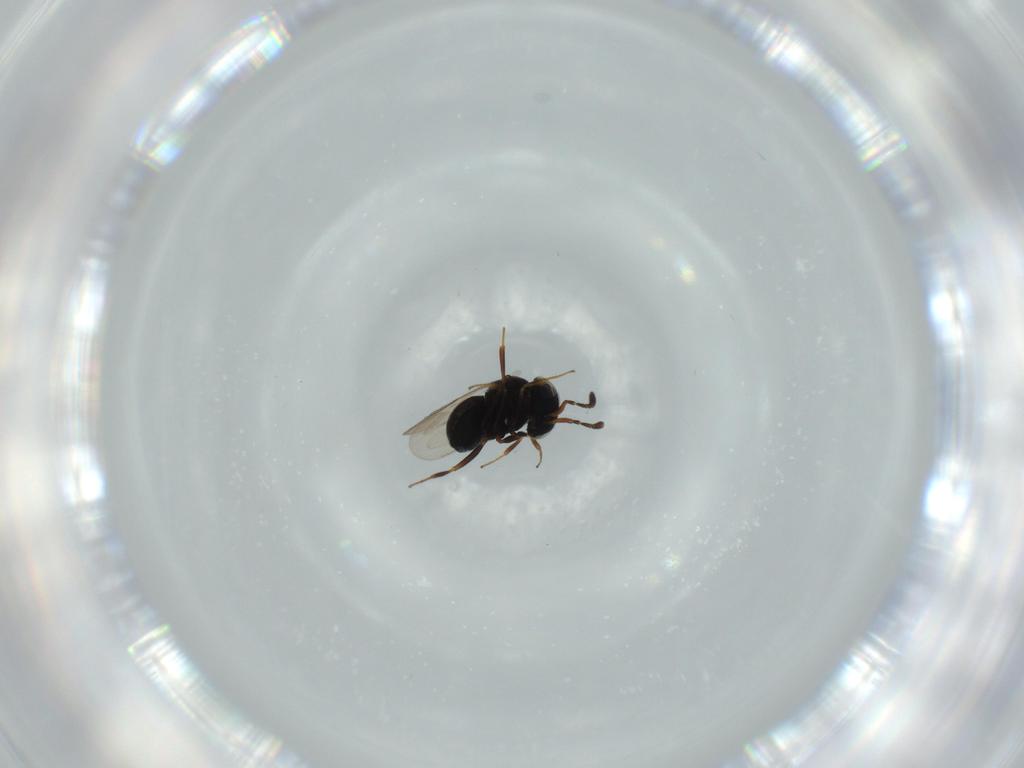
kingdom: Animalia
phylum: Arthropoda
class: Insecta
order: Hymenoptera
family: Scelionidae
